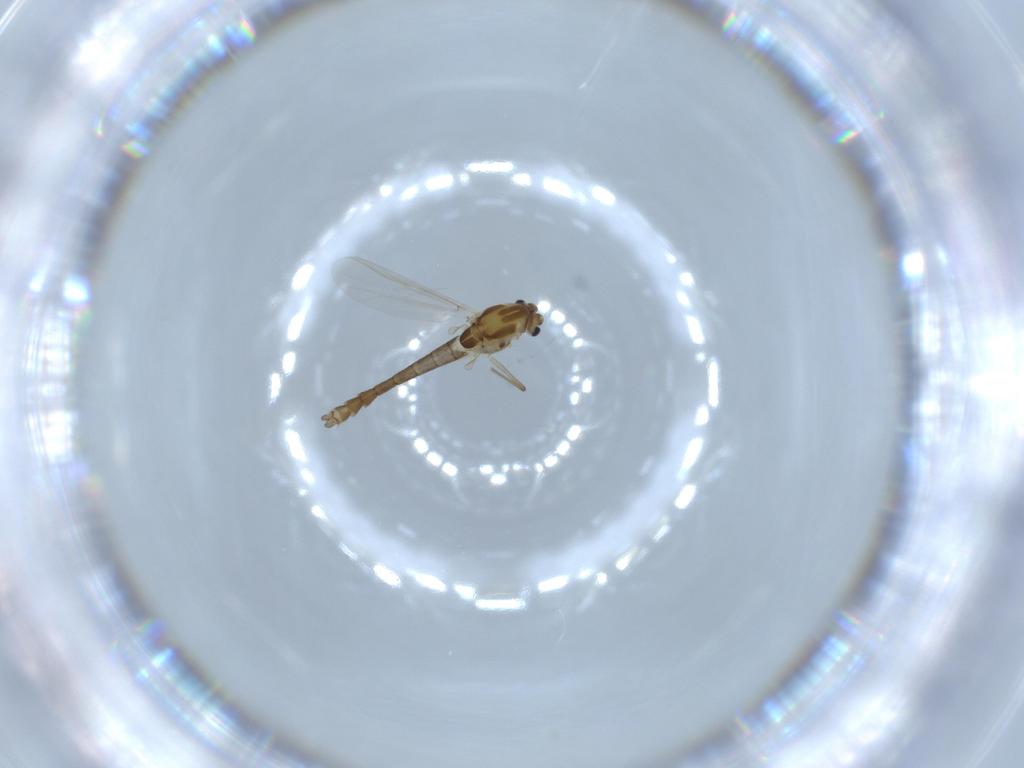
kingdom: Animalia
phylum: Arthropoda
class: Insecta
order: Diptera
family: Chironomidae
